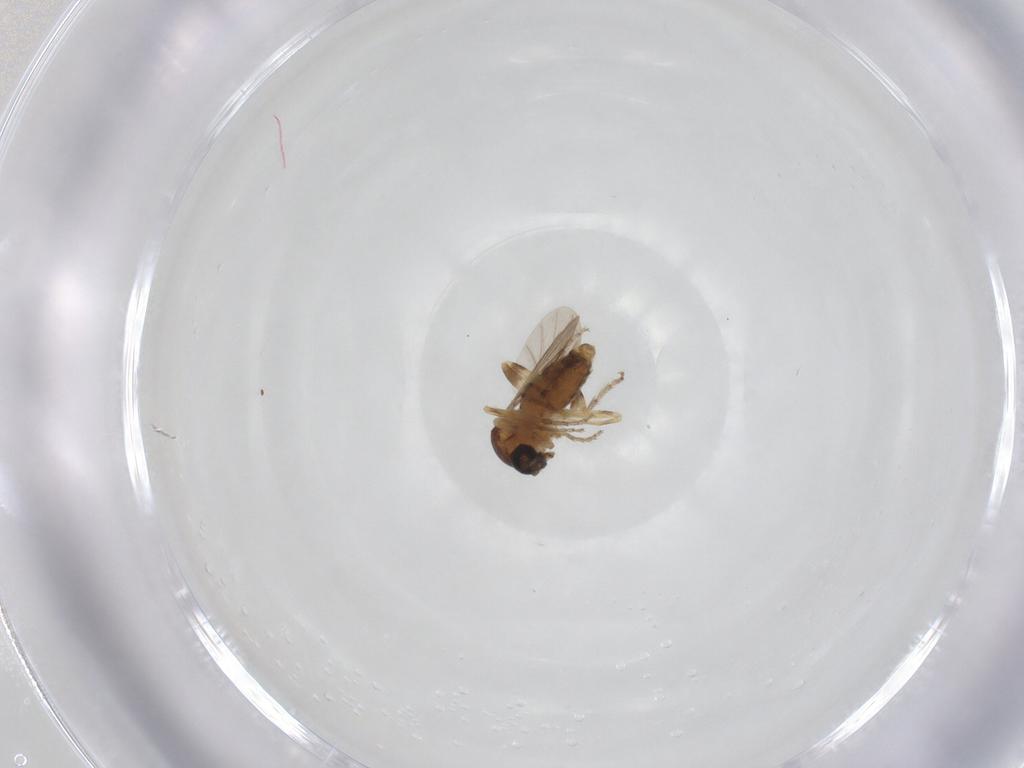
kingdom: Animalia
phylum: Arthropoda
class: Insecta
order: Diptera
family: Ceratopogonidae
